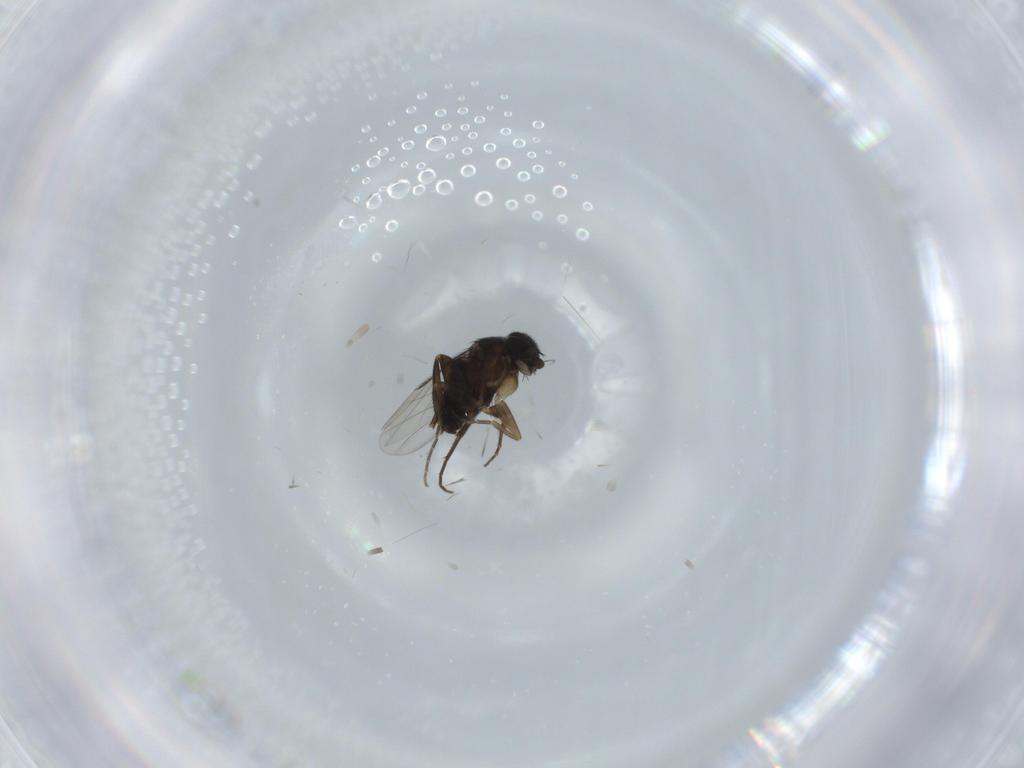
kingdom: Animalia
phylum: Arthropoda
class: Insecta
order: Diptera
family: Phoridae
